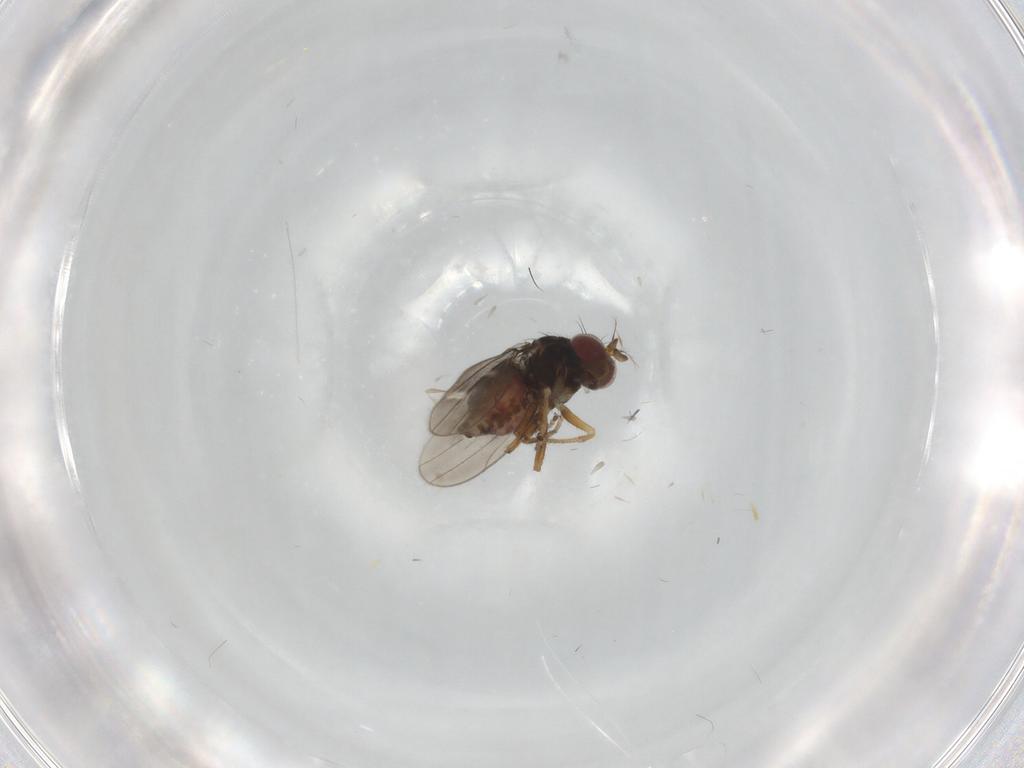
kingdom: Animalia
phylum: Arthropoda
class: Insecta
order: Diptera
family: Ephydridae
